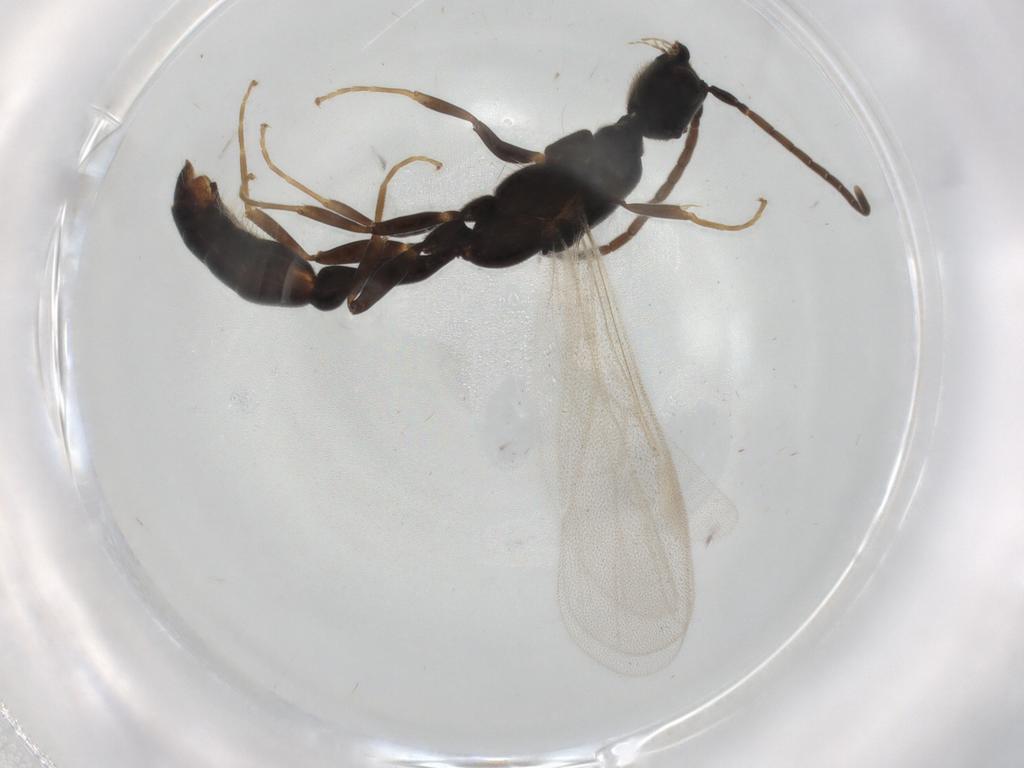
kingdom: Animalia
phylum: Arthropoda
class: Insecta
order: Hymenoptera
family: Formicidae
